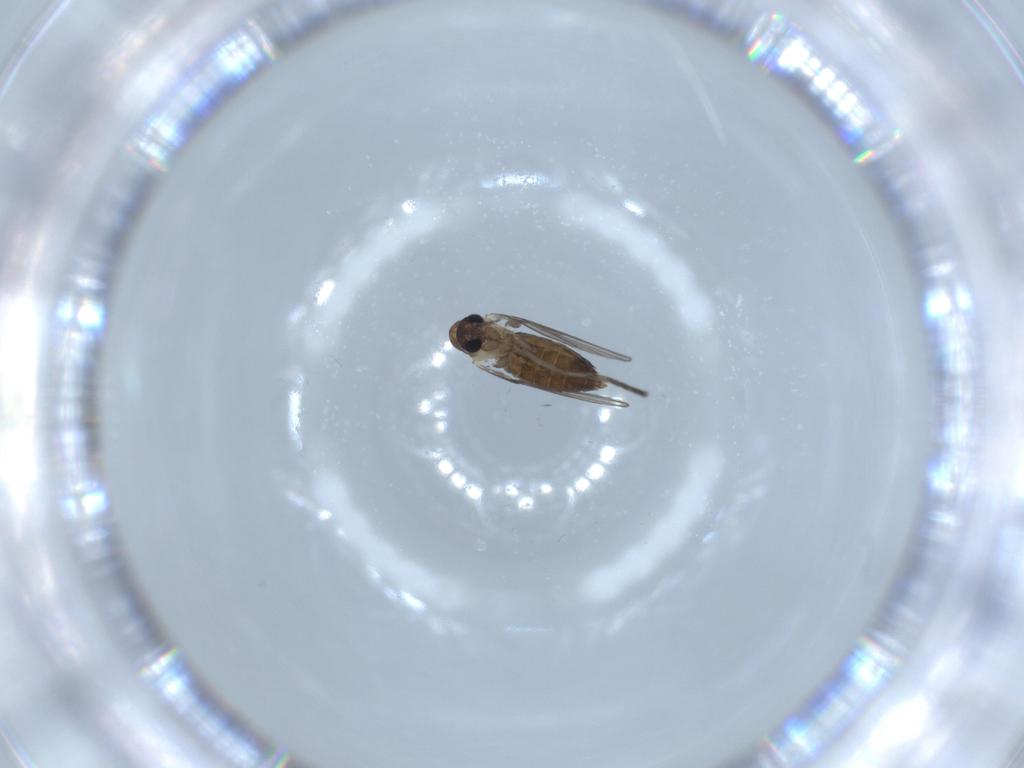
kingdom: Animalia
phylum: Arthropoda
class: Insecta
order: Diptera
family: Psychodidae
